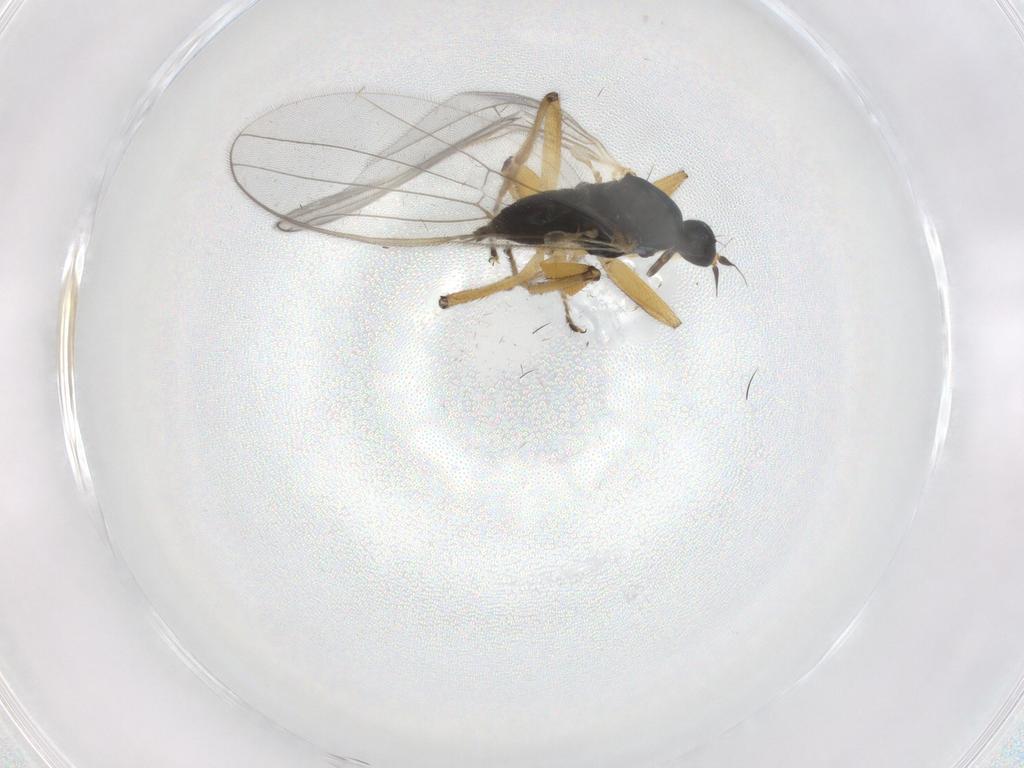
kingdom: Animalia
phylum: Arthropoda
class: Insecta
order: Diptera
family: Hybotidae
